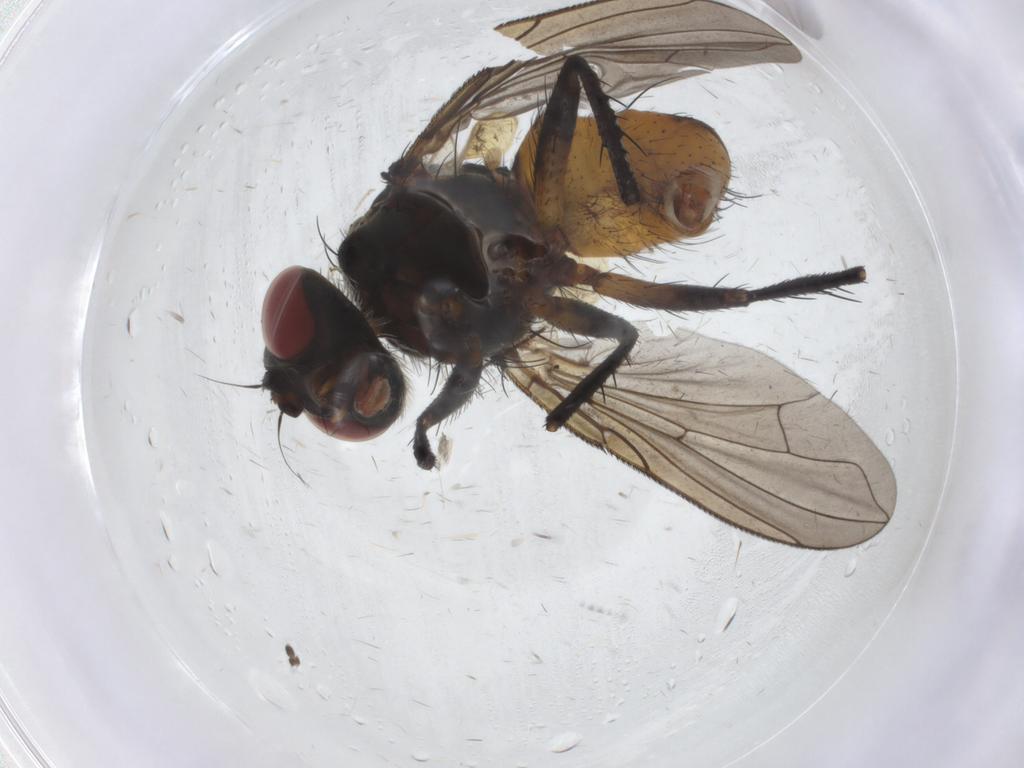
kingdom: Animalia
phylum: Arthropoda
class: Insecta
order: Diptera
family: Tachinidae
